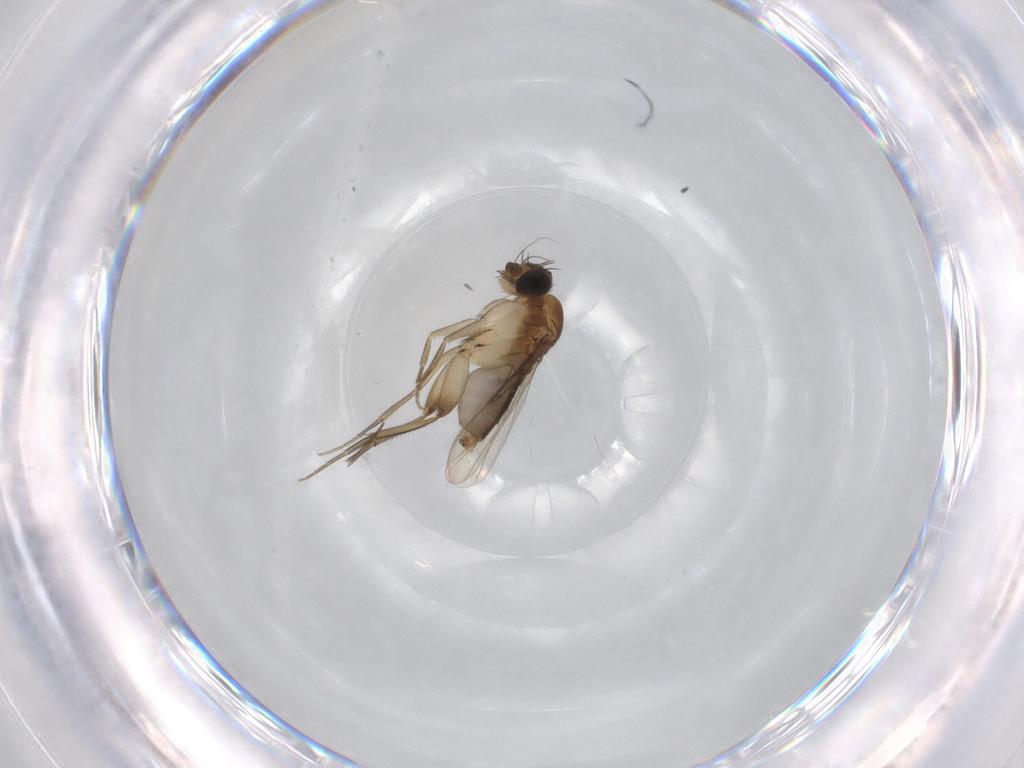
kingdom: Animalia
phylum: Arthropoda
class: Insecta
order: Diptera
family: Phoridae
